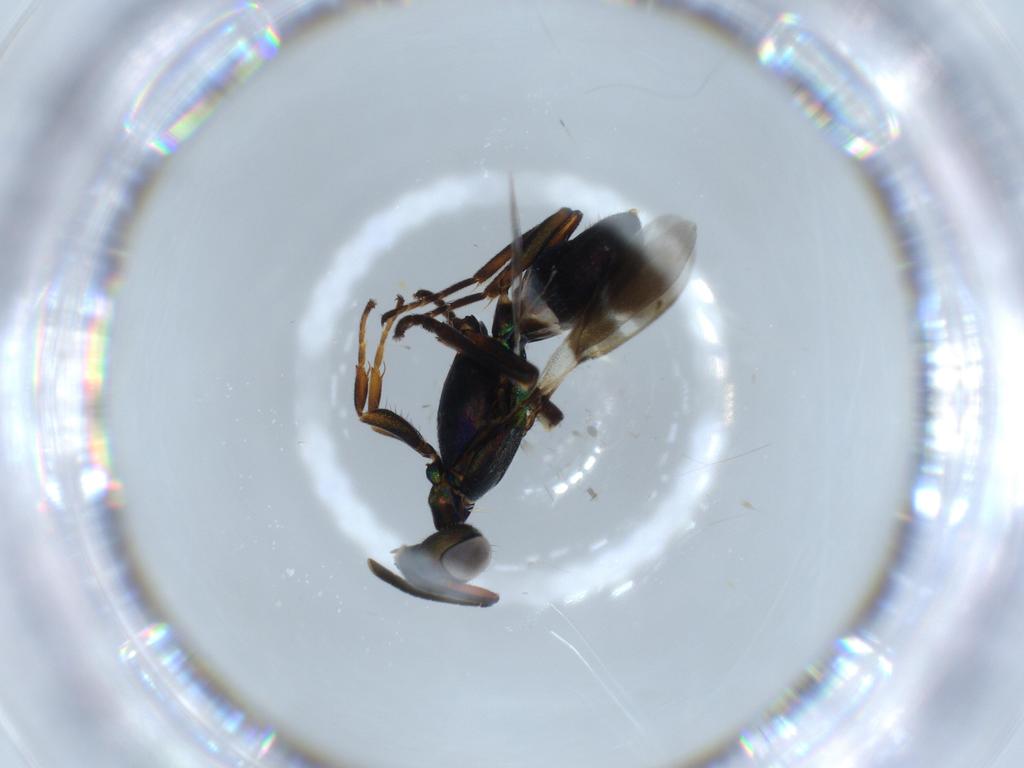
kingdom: Animalia
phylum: Arthropoda
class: Insecta
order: Hymenoptera
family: Formicidae
